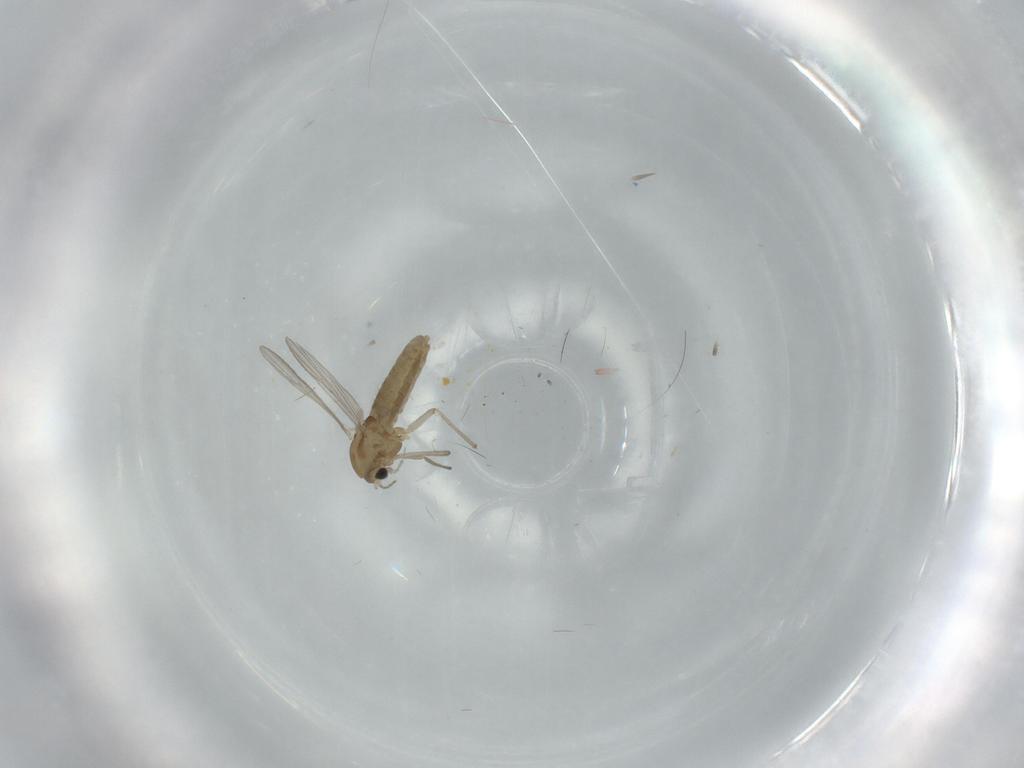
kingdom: Animalia
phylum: Arthropoda
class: Insecta
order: Diptera
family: Chironomidae
